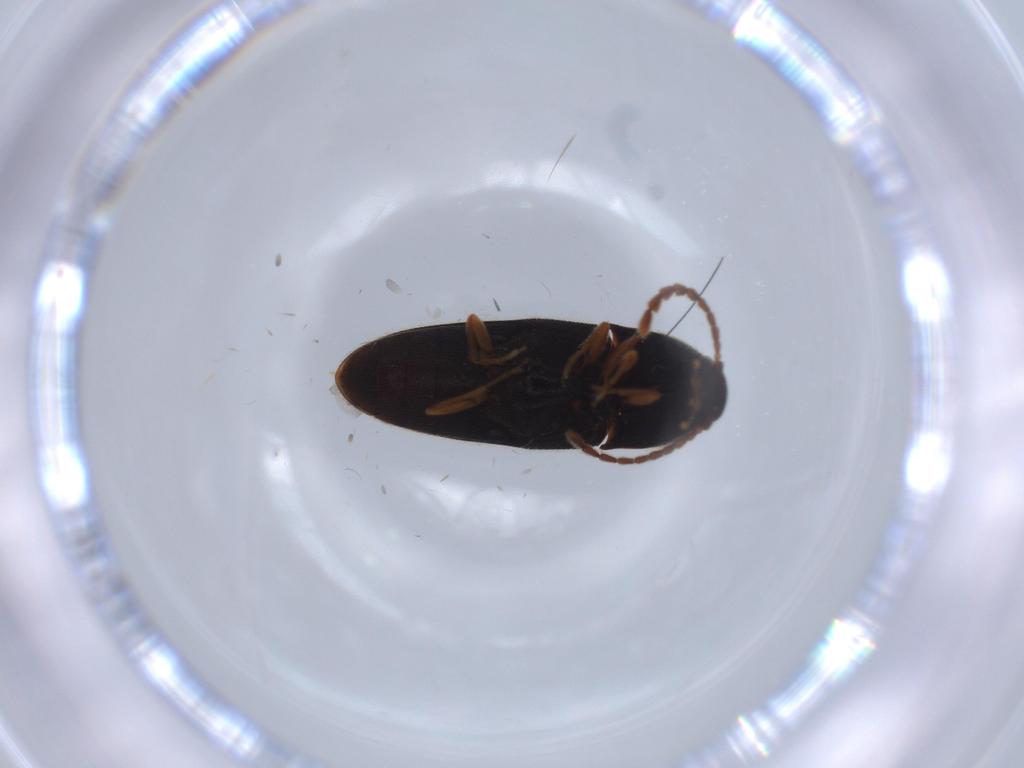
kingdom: Animalia
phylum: Arthropoda
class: Insecta
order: Coleoptera
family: Elateridae
